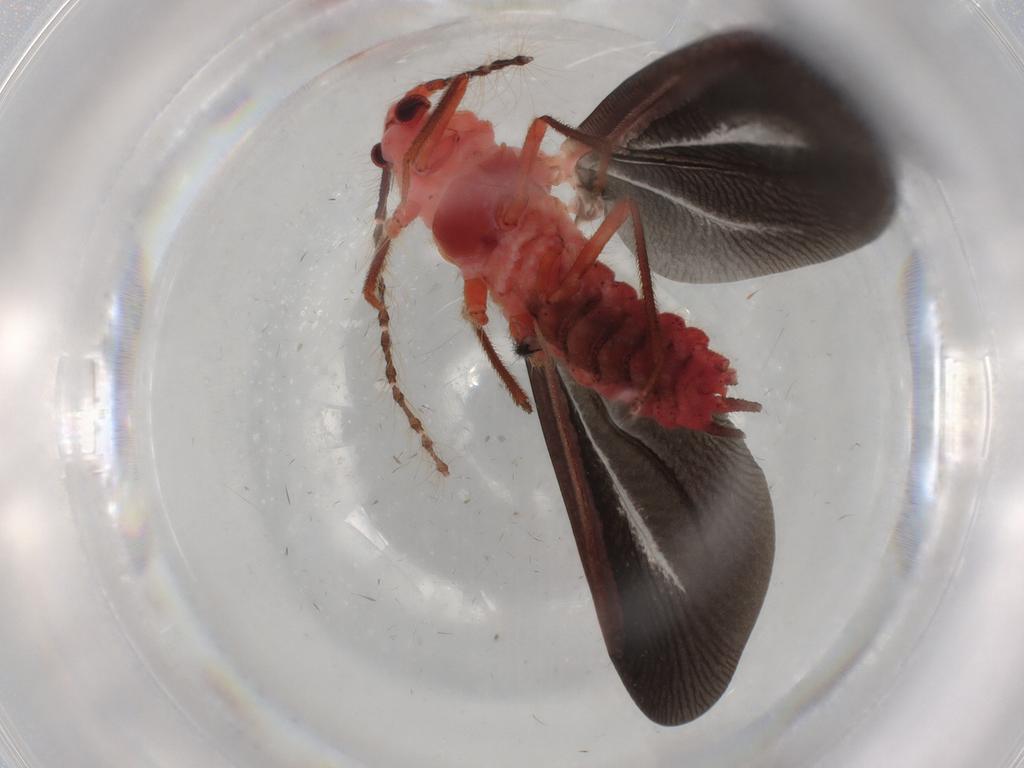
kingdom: Animalia
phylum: Arthropoda
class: Insecta
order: Hemiptera
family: Margarodidae
